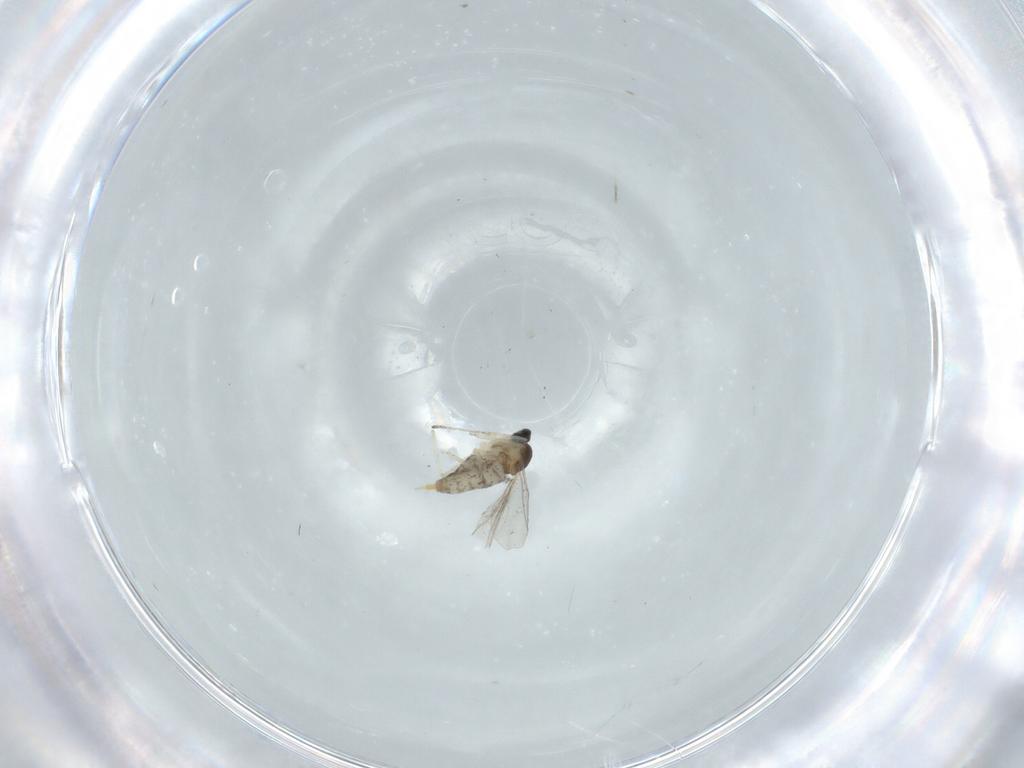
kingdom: Animalia
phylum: Arthropoda
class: Insecta
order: Diptera
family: Cecidomyiidae
